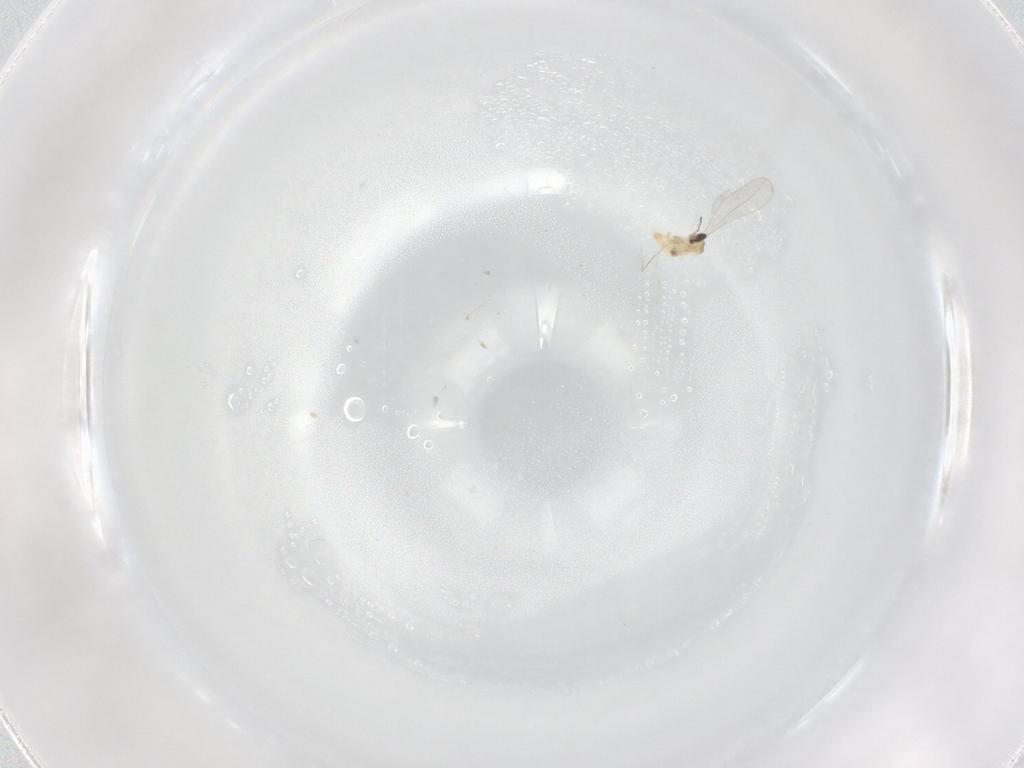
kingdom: Animalia
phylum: Arthropoda
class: Insecta
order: Diptera
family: Cecidomyiidae
